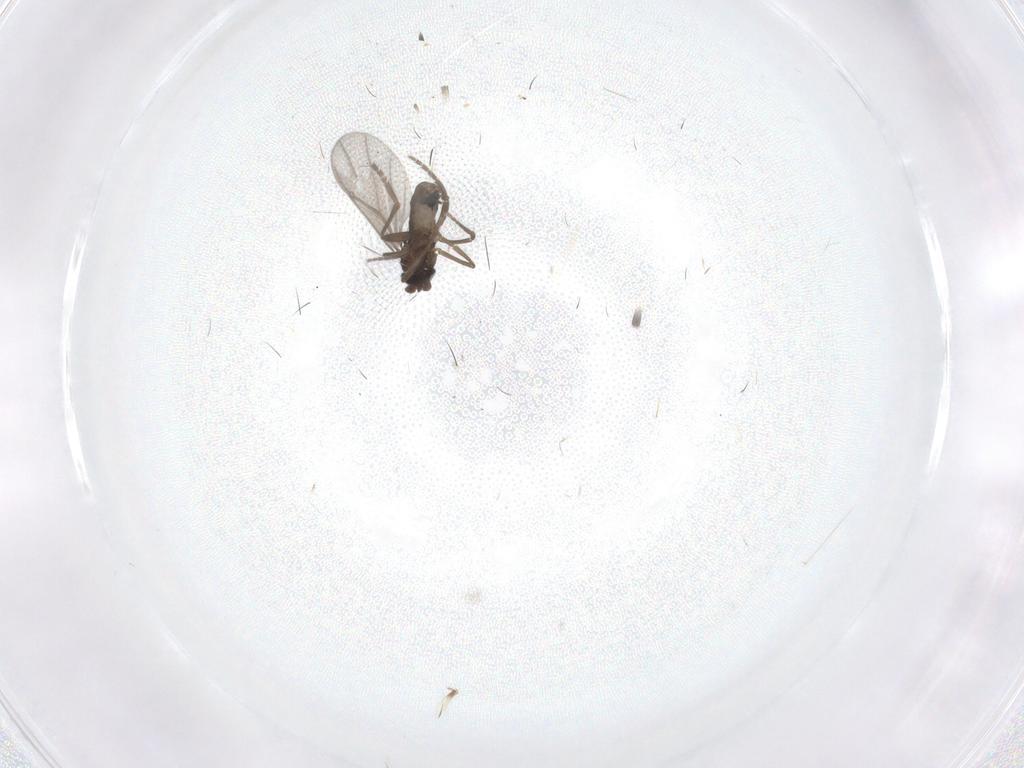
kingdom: Animalia
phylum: Arthropoda
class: Insecta
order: Diptera
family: Phoridae
